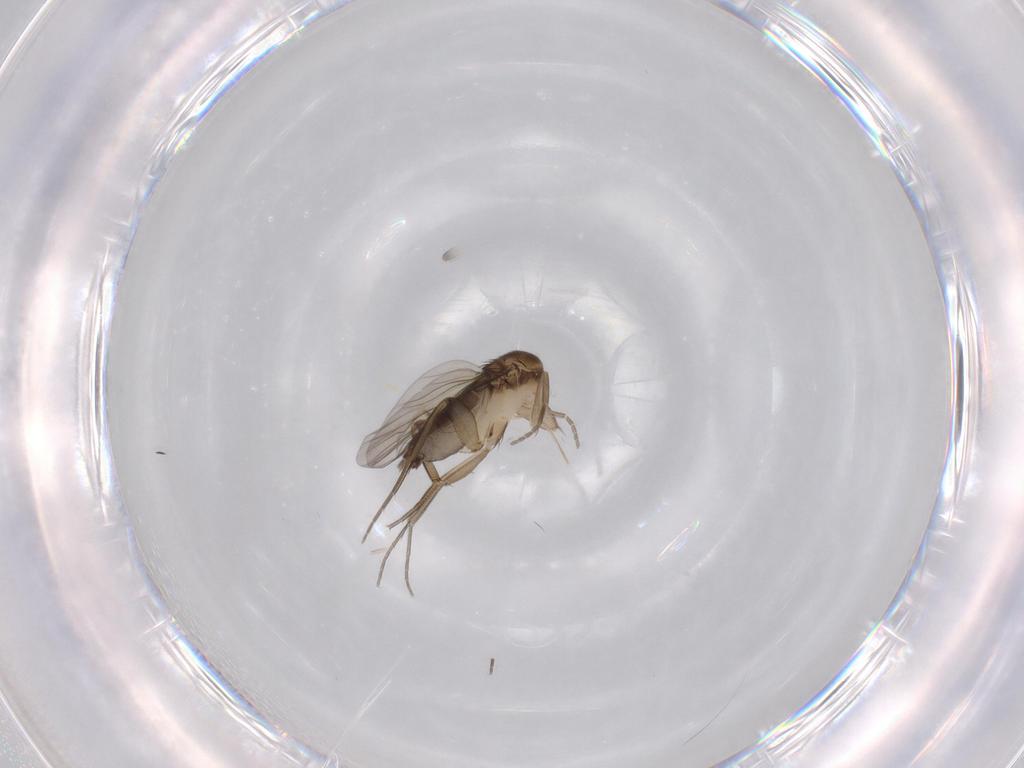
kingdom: Animalia
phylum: Arthropoda
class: Insecta
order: Diptera
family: Phoridae
